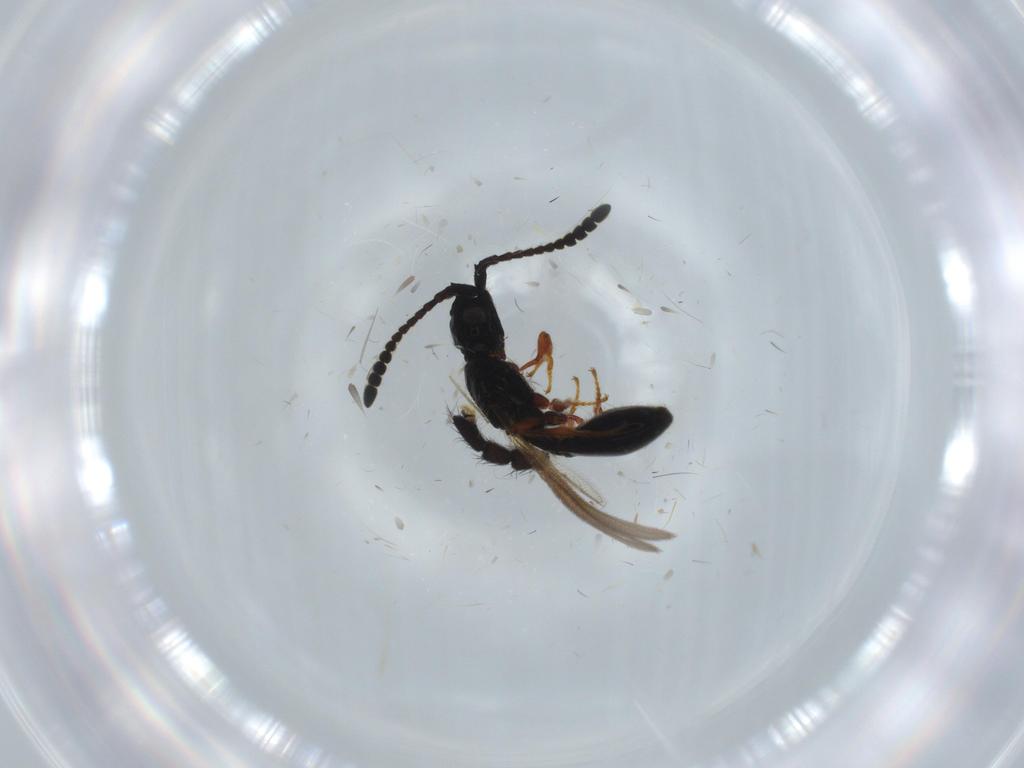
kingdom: Animalia
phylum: Arthropoda
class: Insecta
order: Hymenoptera
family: Diapriidae
